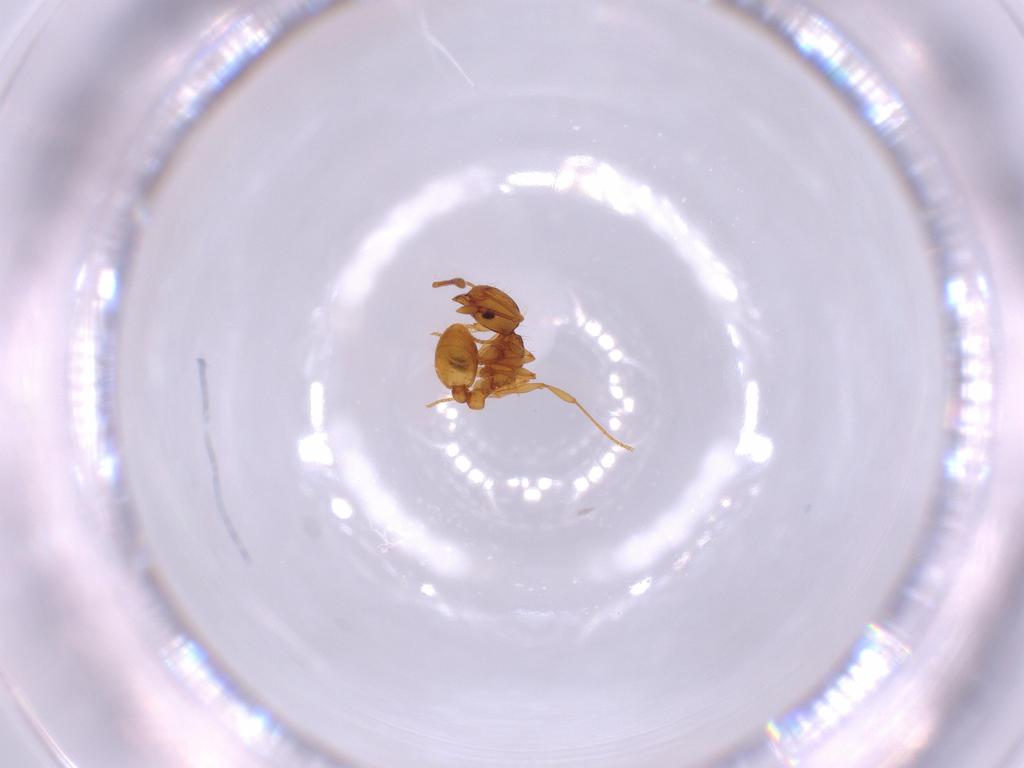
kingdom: Animalia
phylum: Arthropoda
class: Insecta
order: Hymenoptera
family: Formicidae
